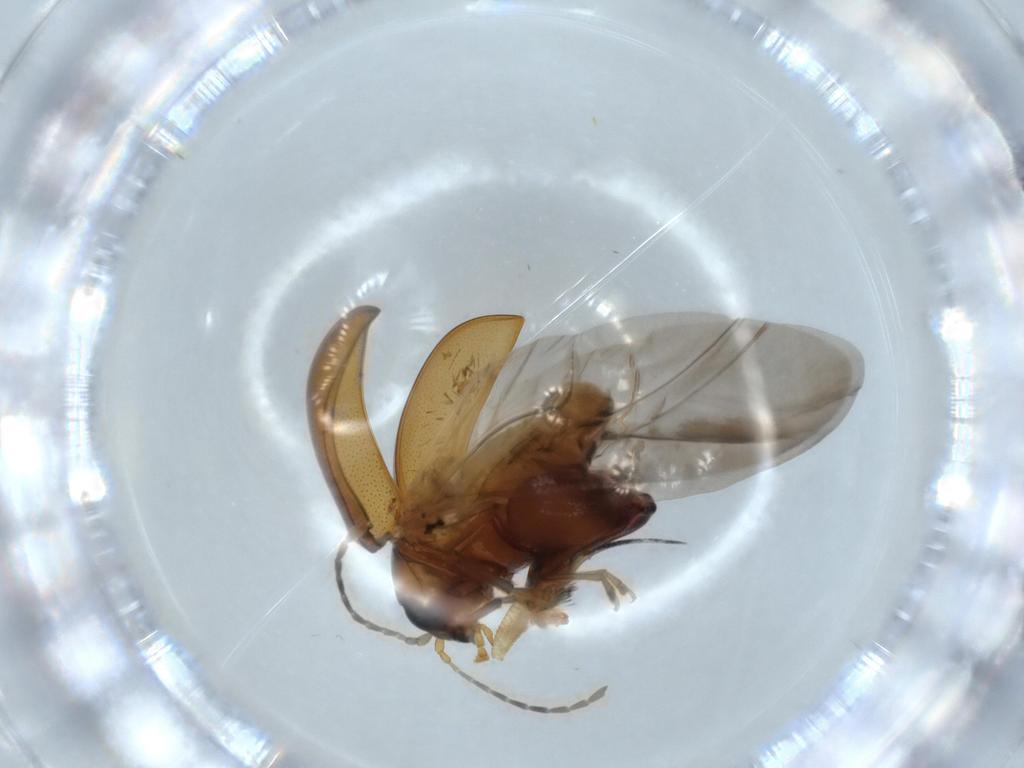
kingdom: Animalia
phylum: Arthropoda
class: Insecta
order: Coleoptera
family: Chrysomelidae
